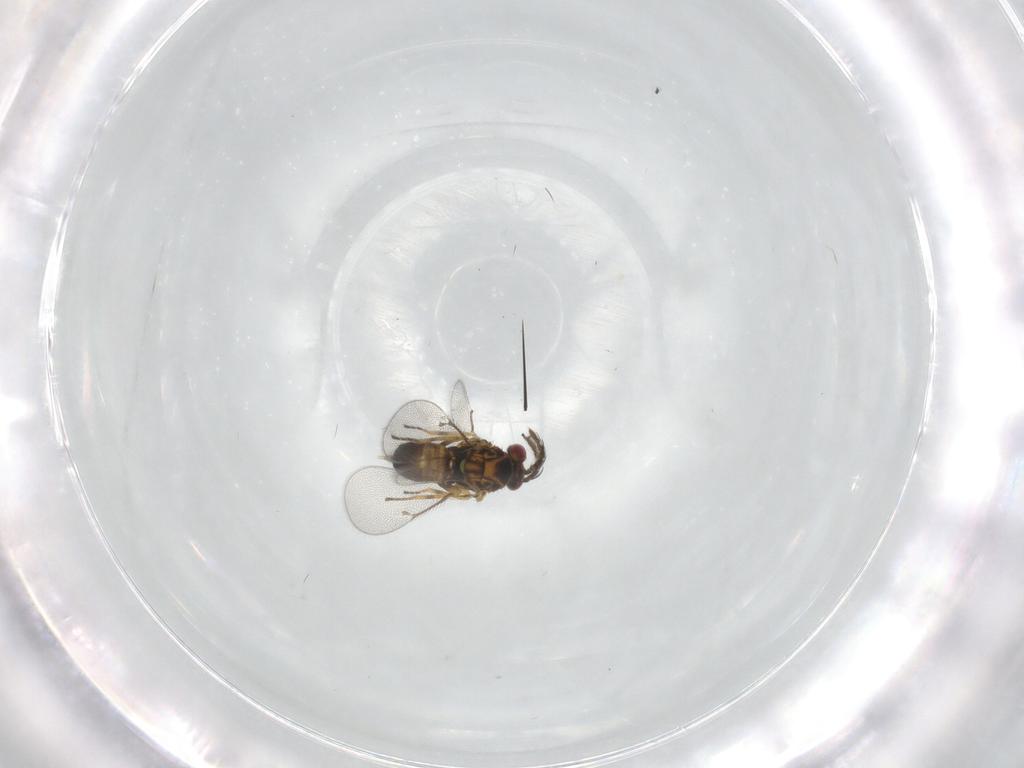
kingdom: Animalia
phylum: Arthropoda
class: Insecta
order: Hymenoptera
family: Eulophidae
